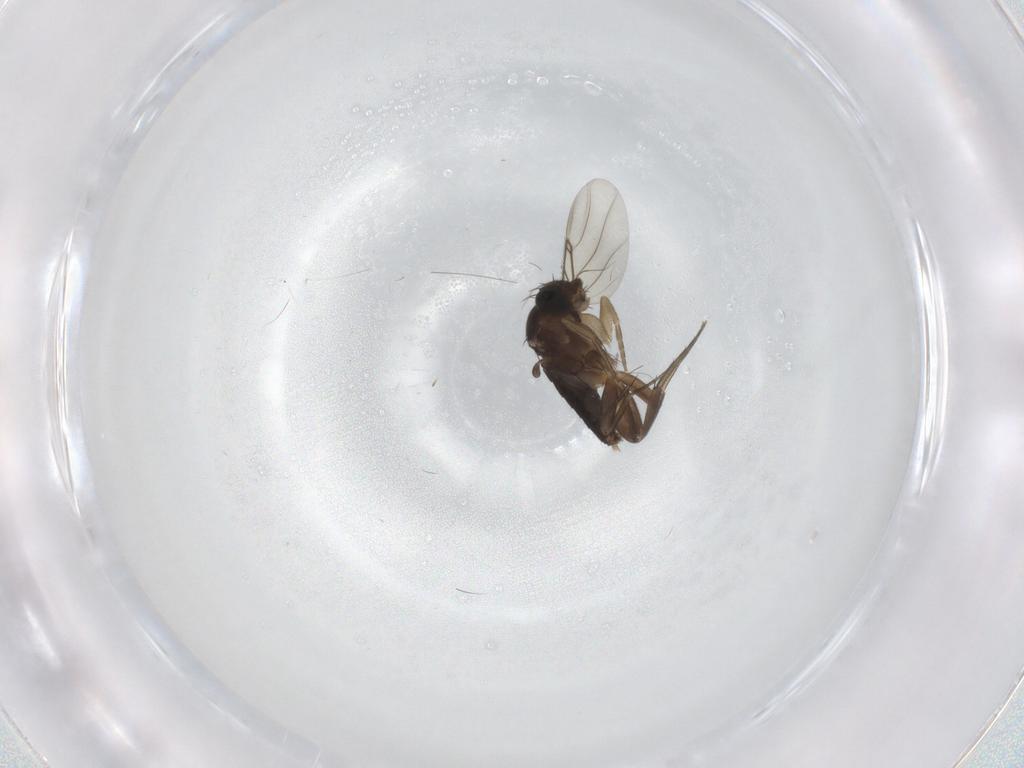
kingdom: Animalia
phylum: Arthropoda
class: Insecta
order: Diptera
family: Phoridae
